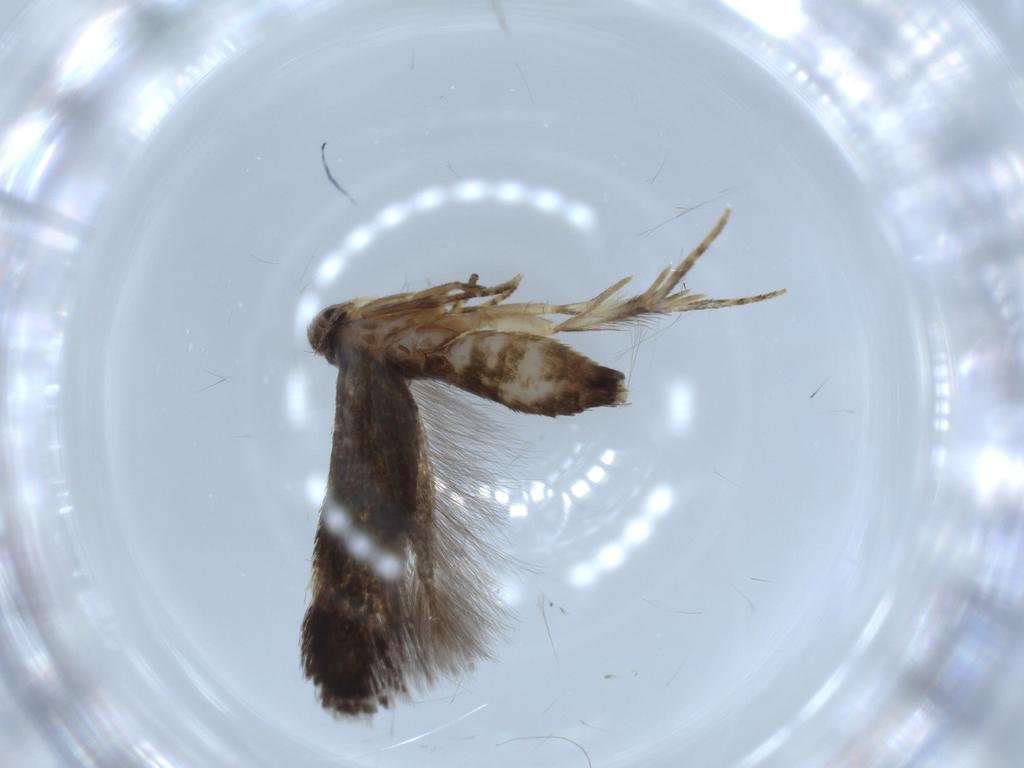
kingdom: Animalia
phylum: Arthropoda
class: Insecta
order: Lepidoptera
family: Gelechiidae
